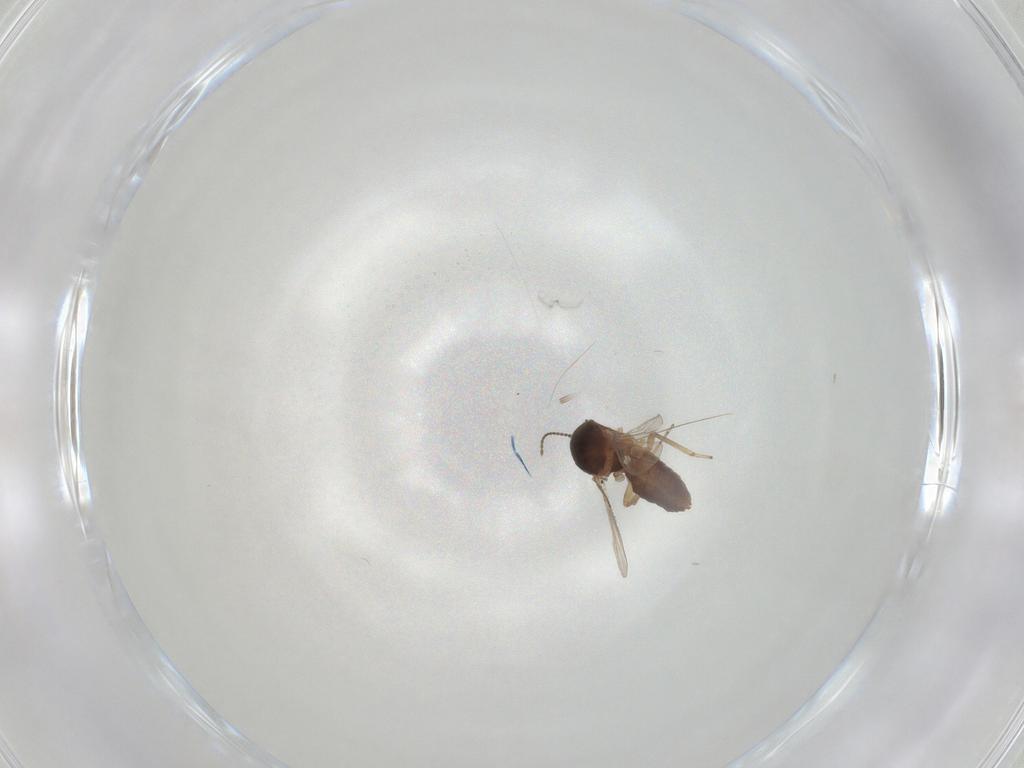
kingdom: Animalia
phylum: Arthropoda
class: Insecta
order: Diptera
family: Ceratopogonidae
